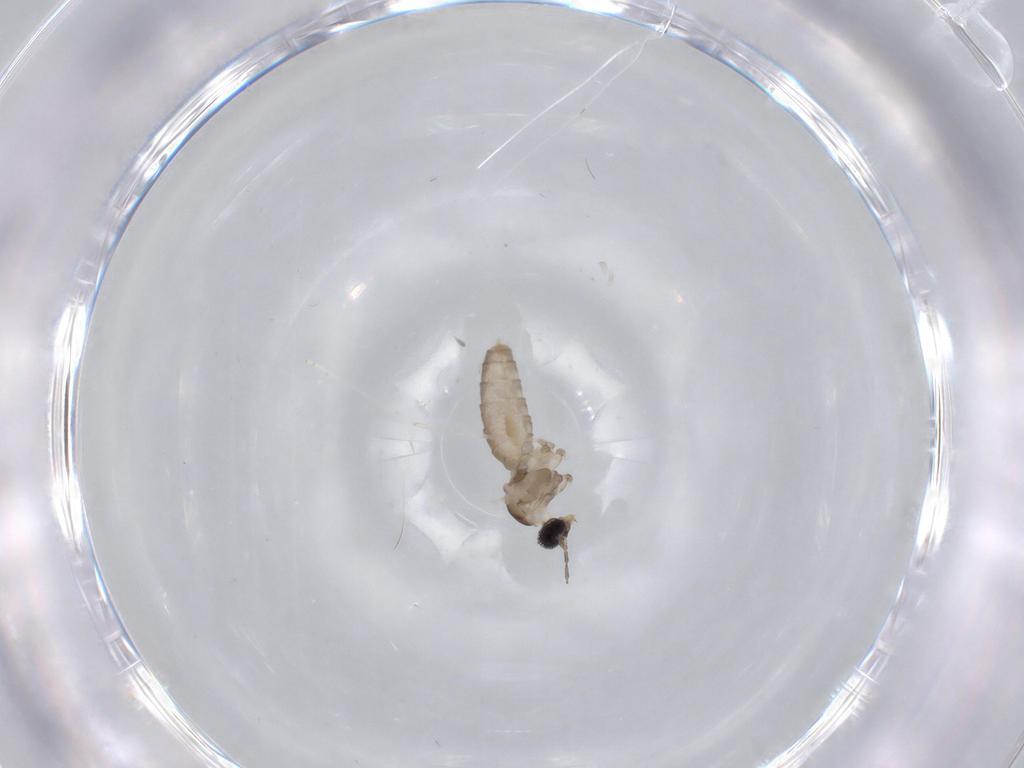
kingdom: Animalia
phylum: Arthropoda
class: Insecta
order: Diptera
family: Cecidomyiidae
